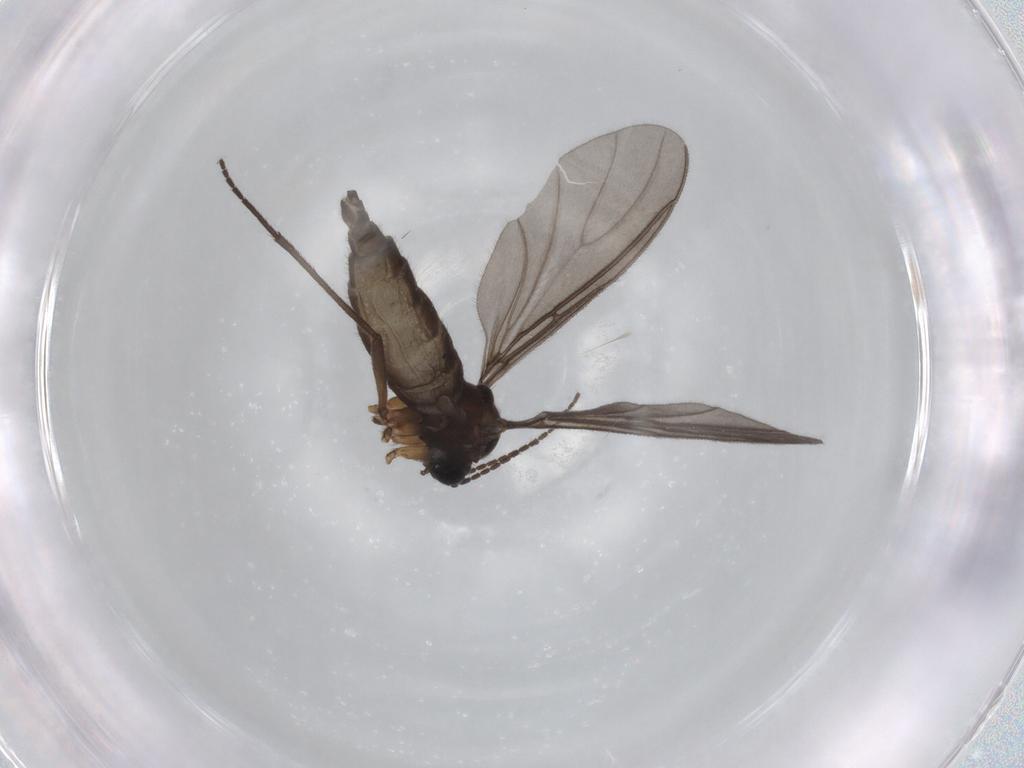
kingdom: Animalia
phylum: Arthropoda
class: Insecta
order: Diptera
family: Sciaridae
